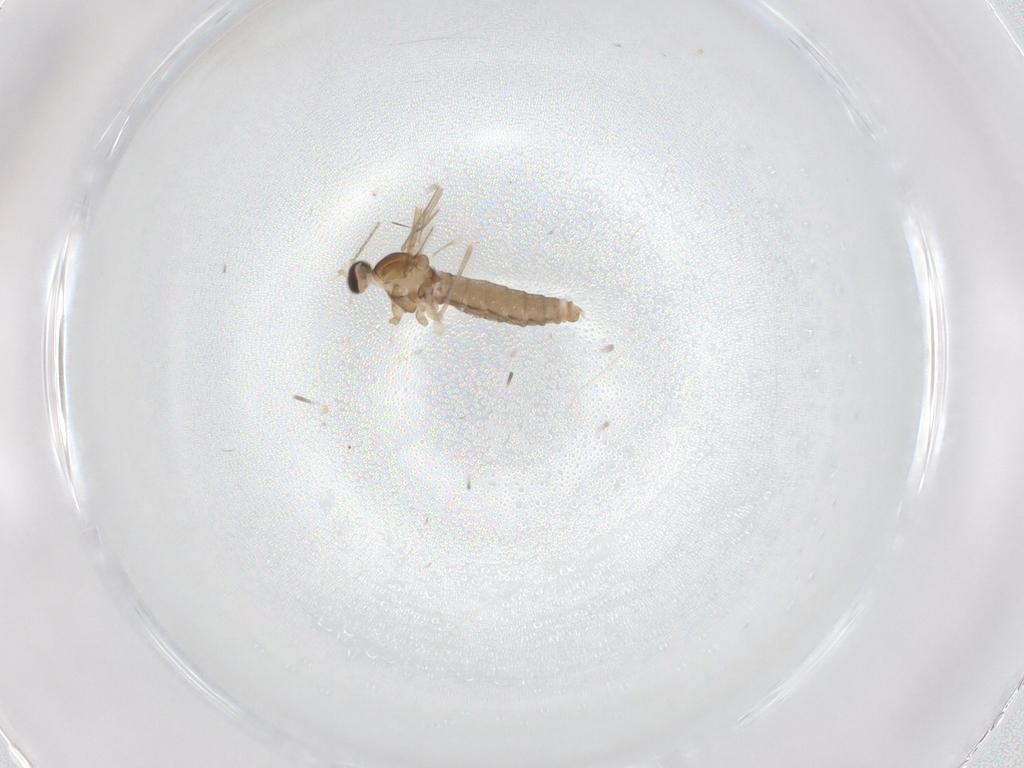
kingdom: Animalia
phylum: Arthropoda
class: Insecta
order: Diptera
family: Cecidomyiidae
